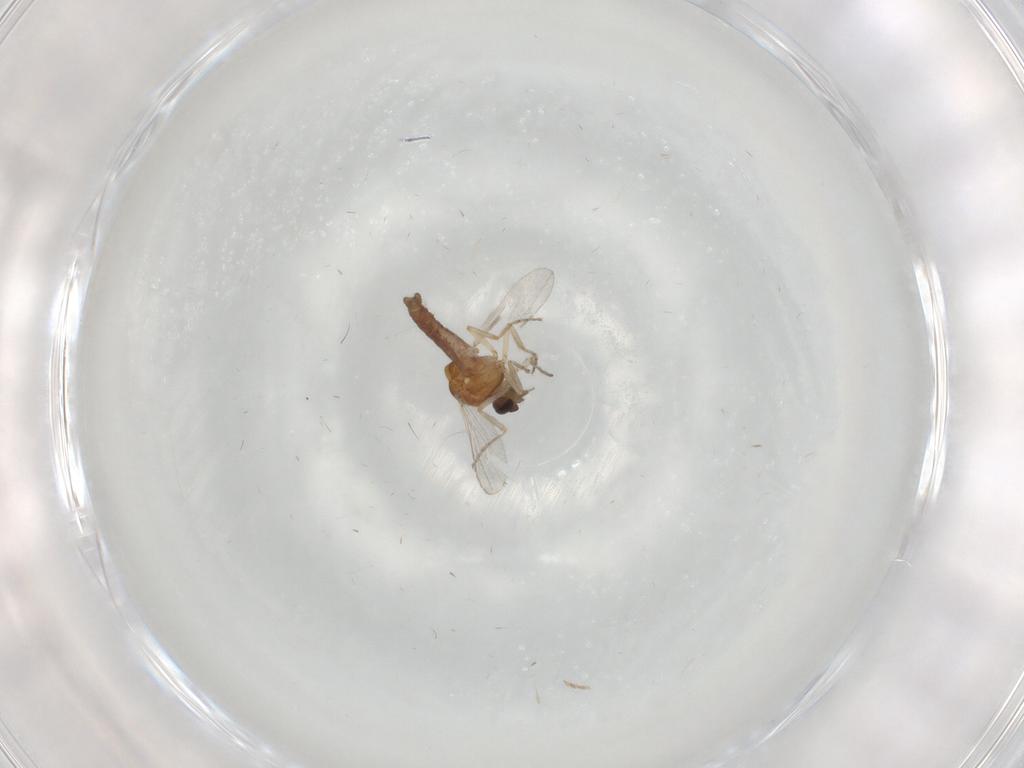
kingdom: Animalia
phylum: Arthropoda
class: Insecta
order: Diptera
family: Ceratopogonidae
